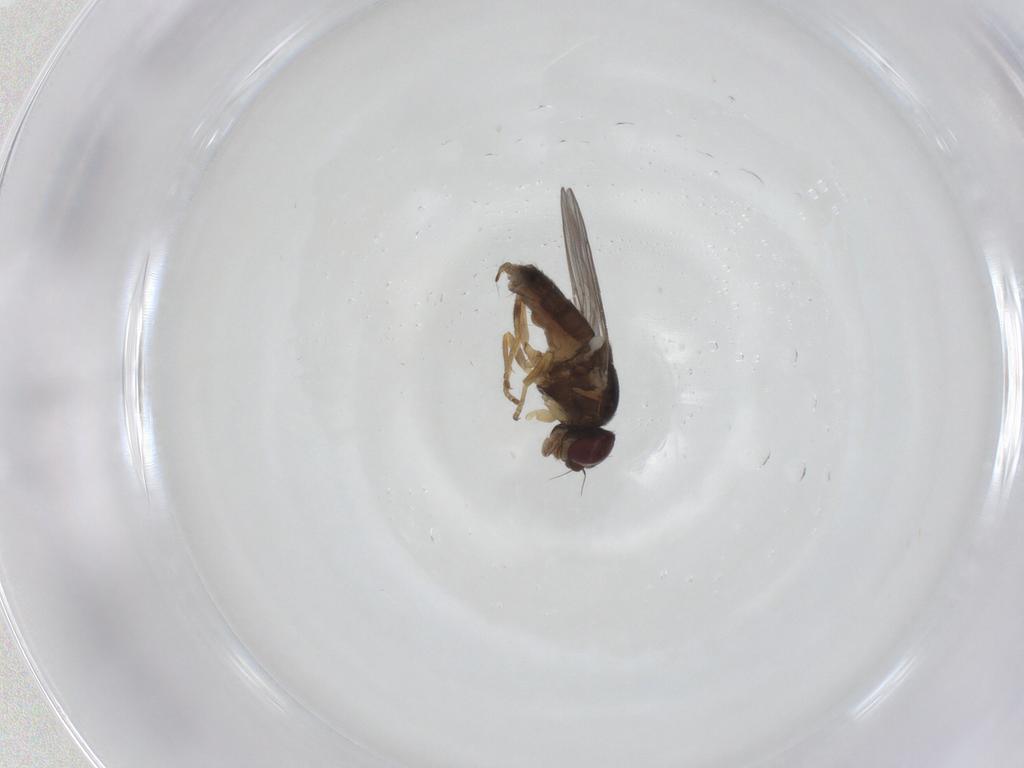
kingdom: Animalia
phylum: Arthropoda
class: Insecta
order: Diptera
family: Chloropidae
